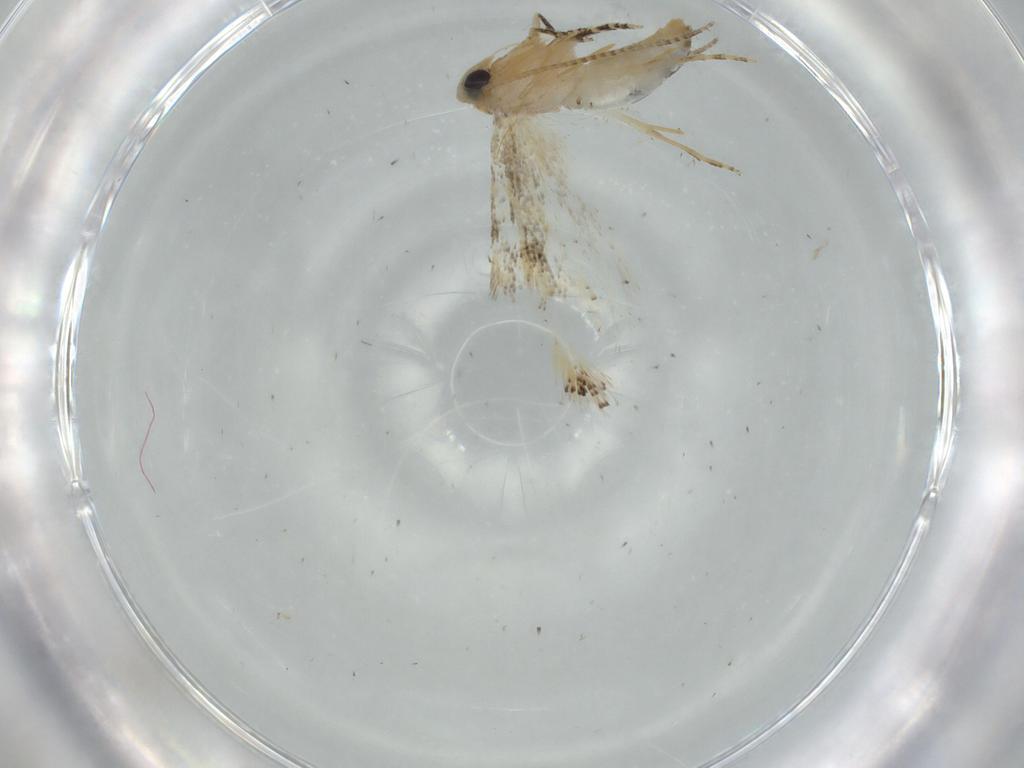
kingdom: Animalia
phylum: Arthropoda
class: Insecta
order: Lepidoptera
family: Bucculatricidae
